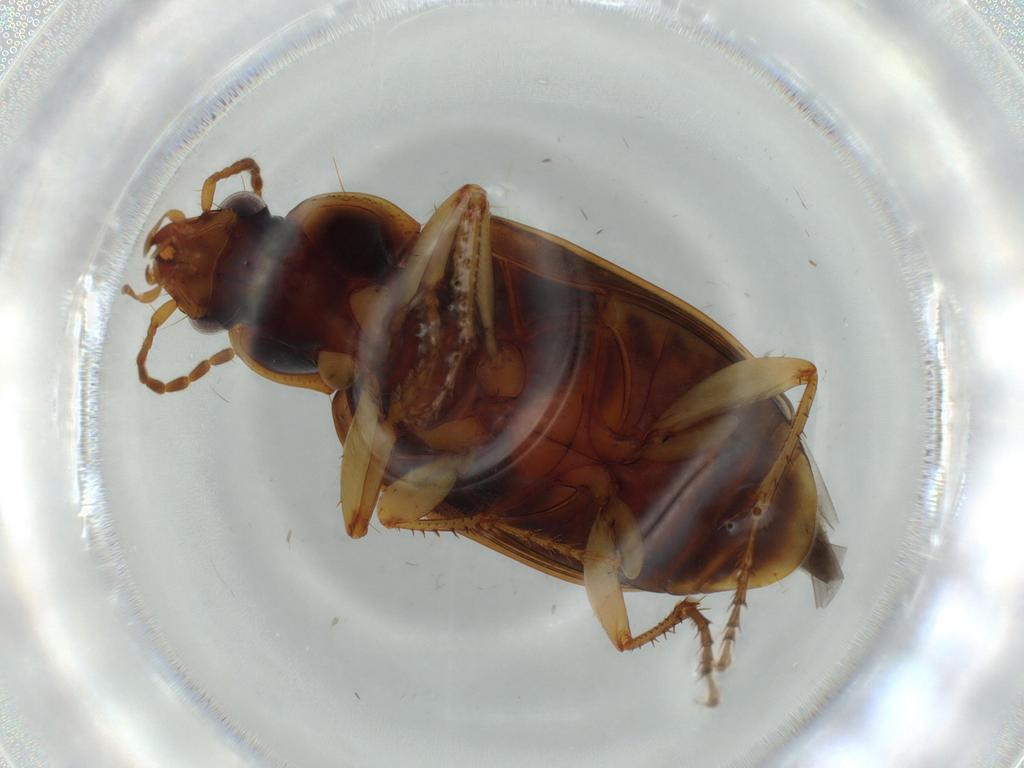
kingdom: Animalia
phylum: Arthropoda
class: Insecta
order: Coleoptera
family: Carabidae
